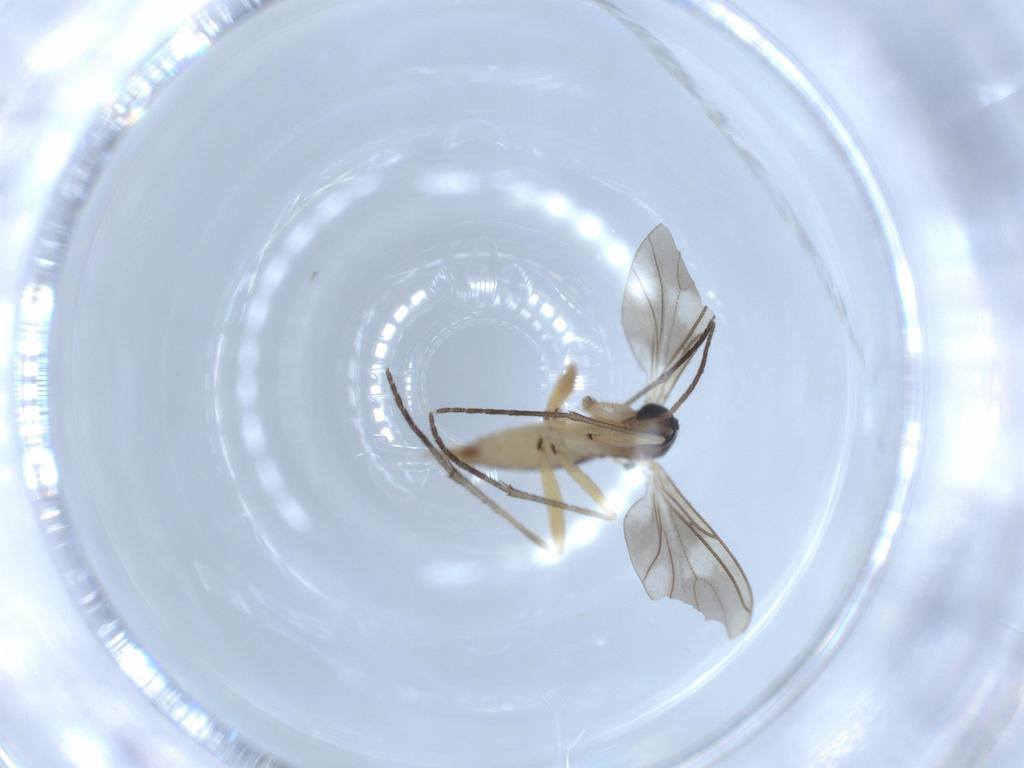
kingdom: Animalia
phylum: Arthropoda
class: Insecta
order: Diptera
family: Sciaridae
